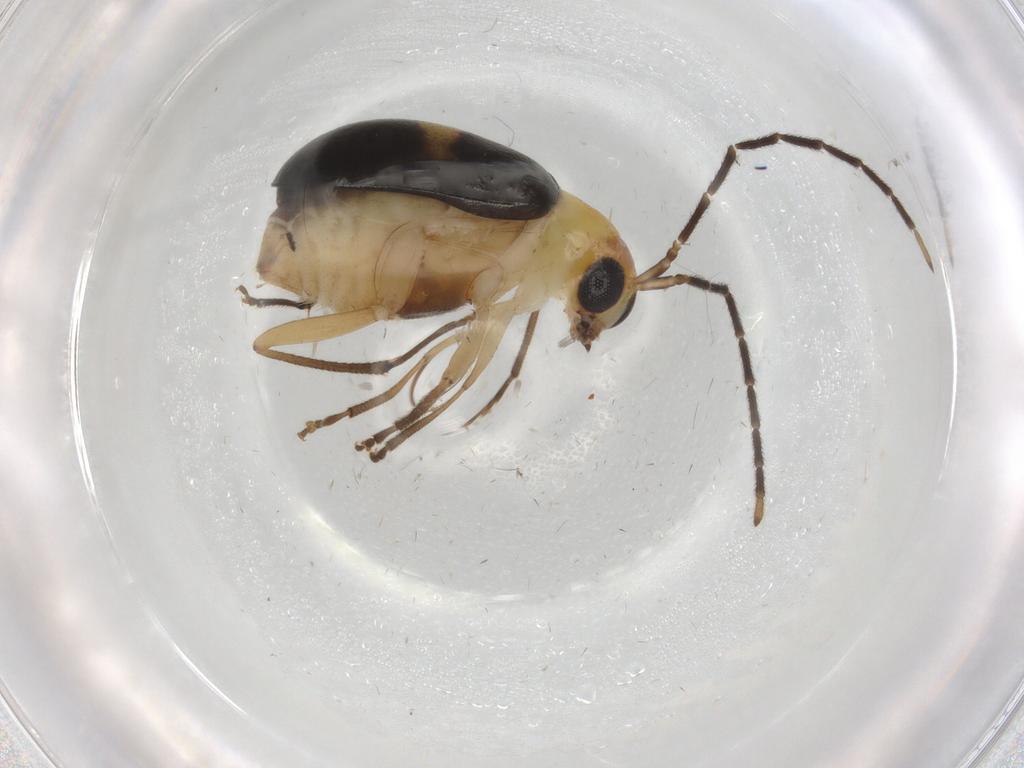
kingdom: Animalia
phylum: Arthropoda
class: Insecta
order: Coleoptera
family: Chrysomelidae
